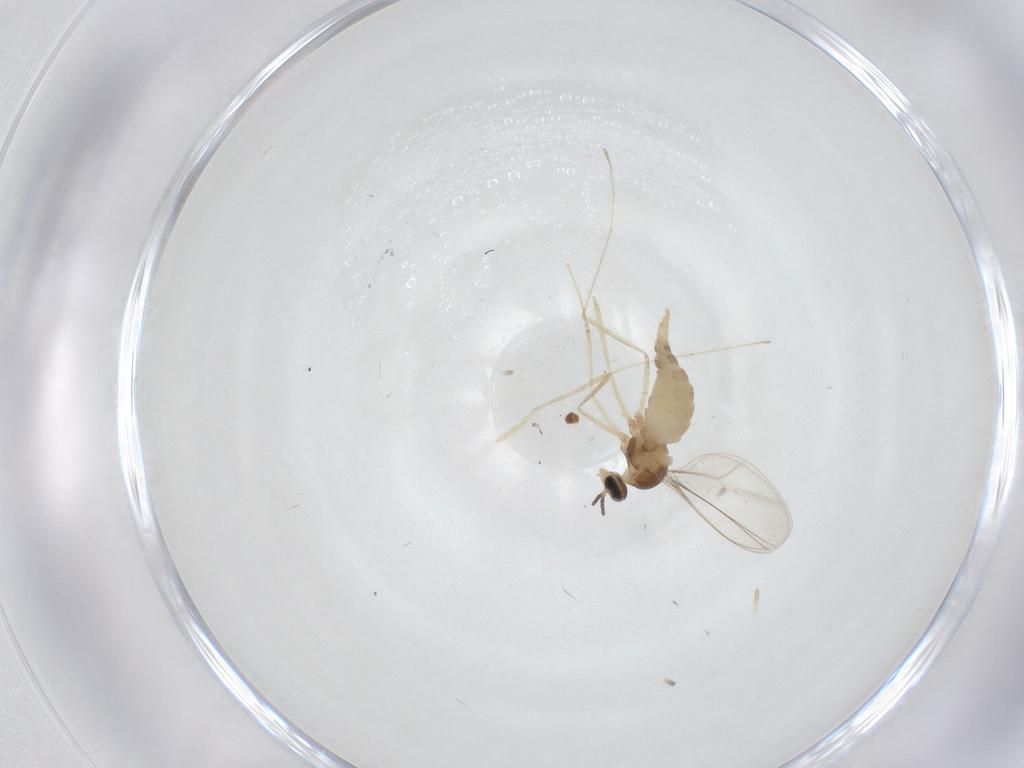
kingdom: Animalia
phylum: Arthropoda
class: Insecta
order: Diptera
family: Cecidomyiidae
